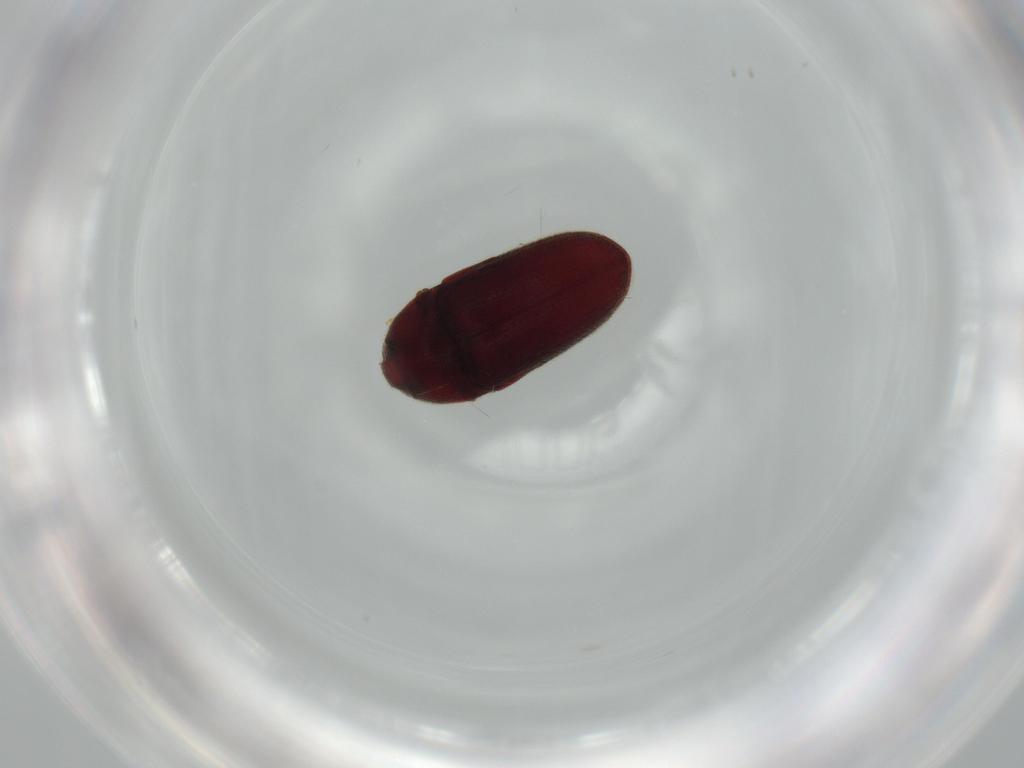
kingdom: Animalia
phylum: Arthropoda
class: Insecta
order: Coleoptera
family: Throscidae
